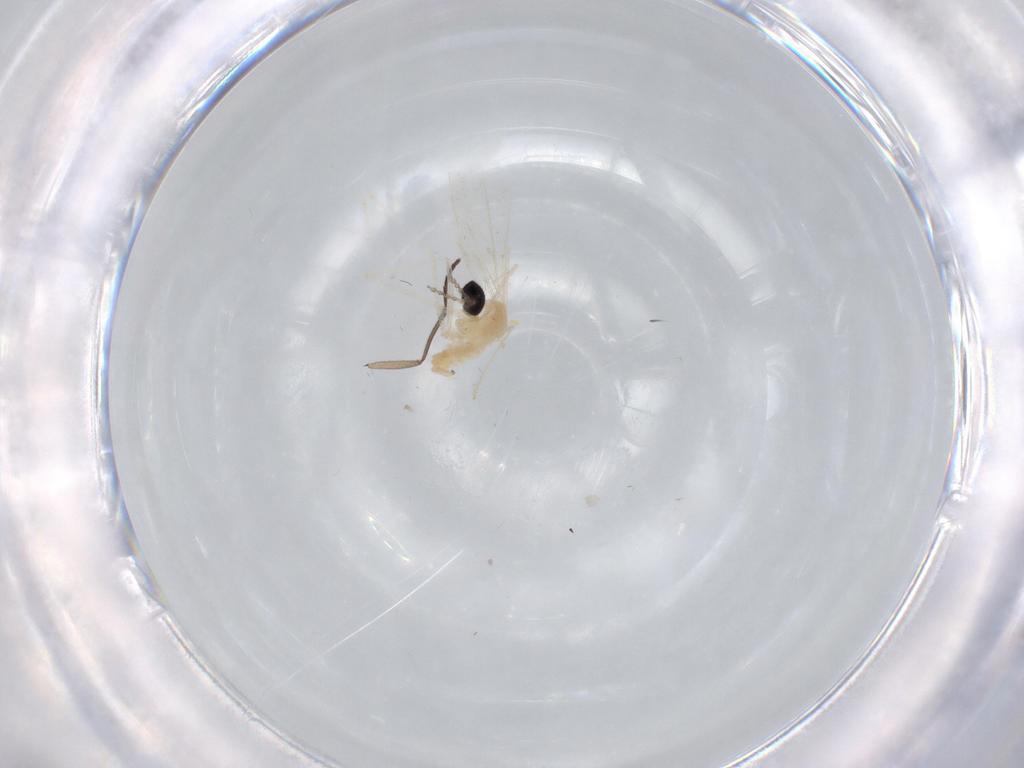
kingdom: Animalia
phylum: Arthropoda
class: Insecta
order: Diptera
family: Cecidomyiidae
